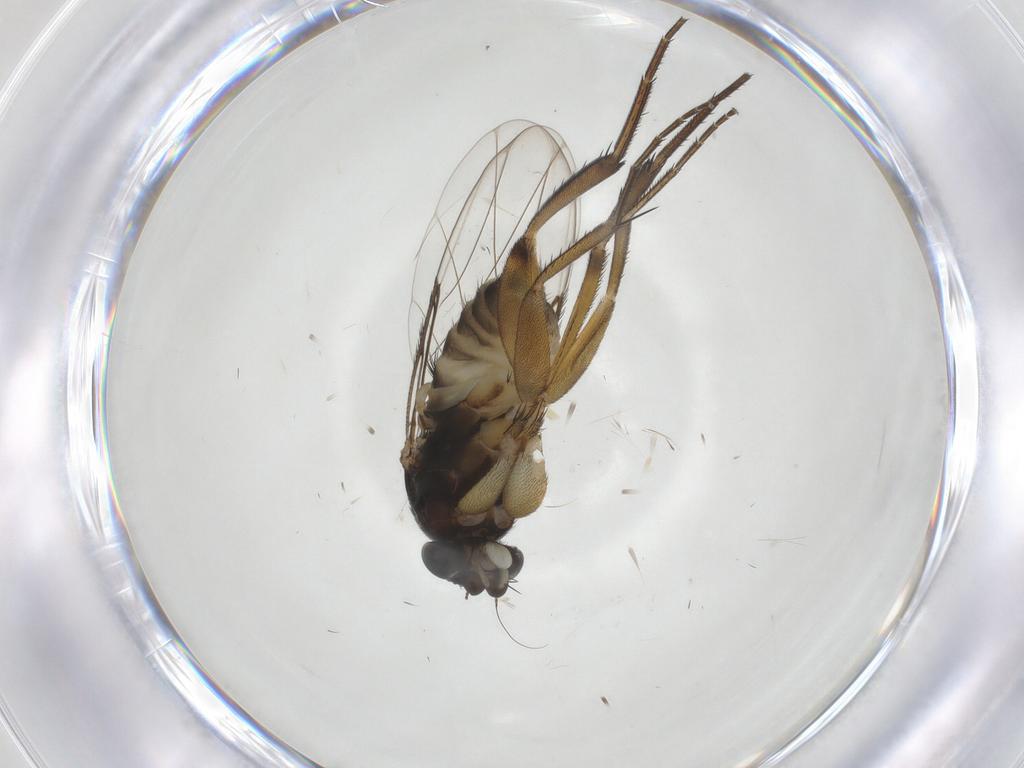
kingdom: Animalia
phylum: Arthropoda
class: Insecta
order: Diptera
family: Phoridae
